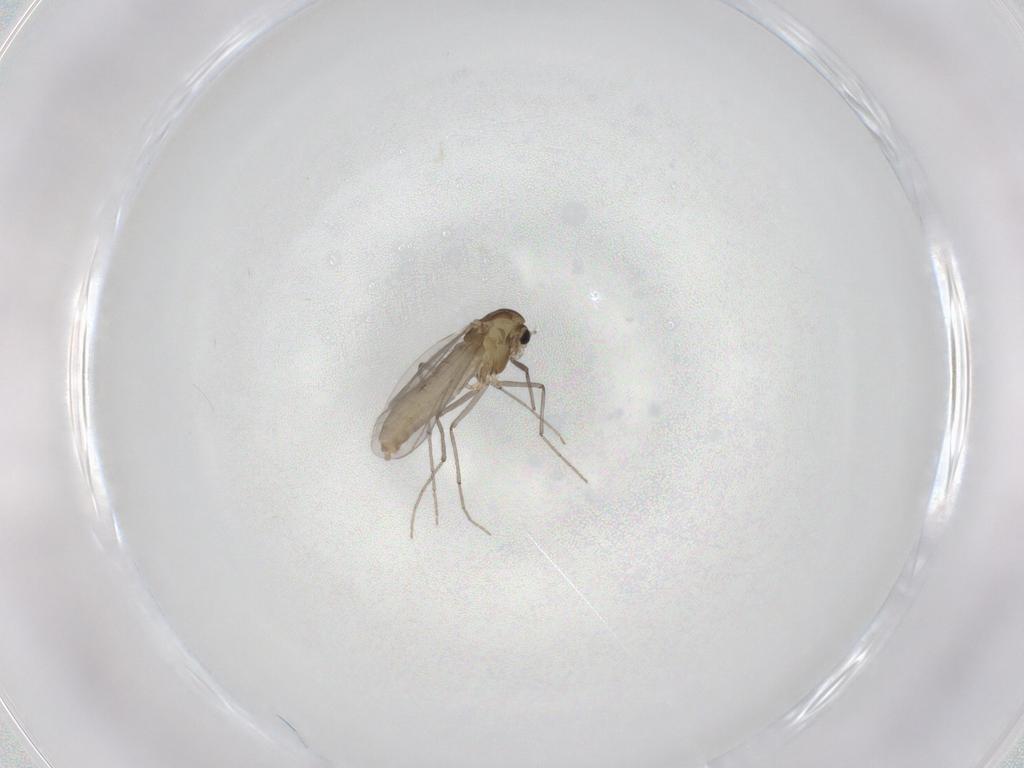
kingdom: Animalia
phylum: Arthropoda
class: Insecta
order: Diptera
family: Chironomidae
